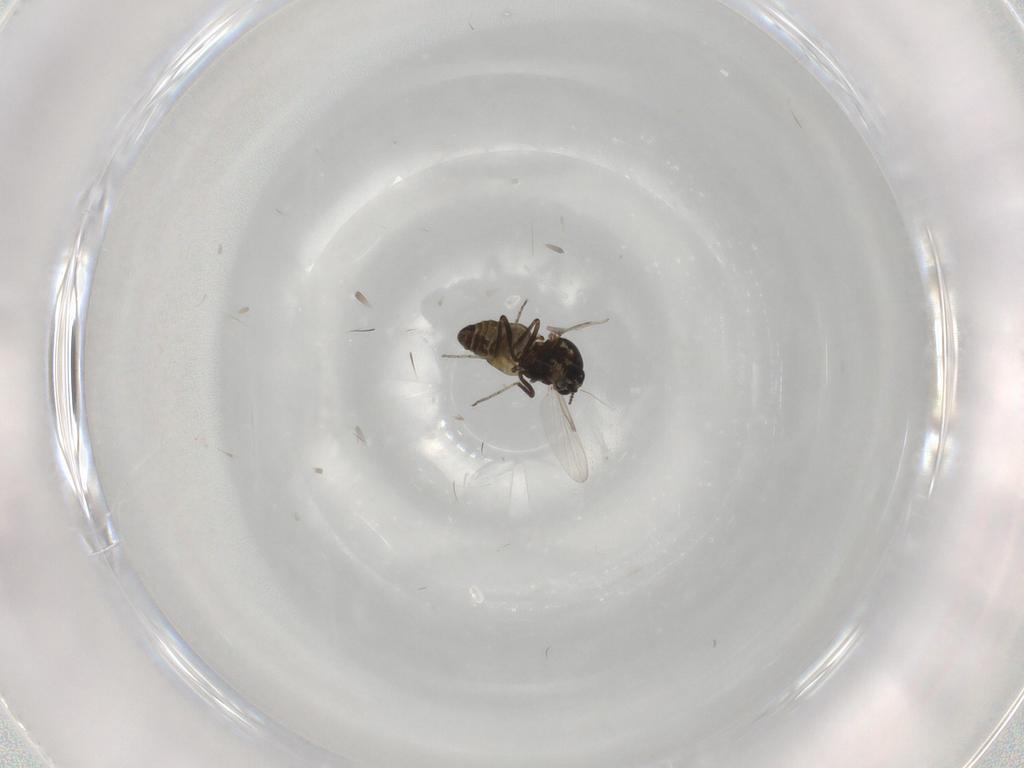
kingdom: Animalia
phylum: Arthropoda
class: Insecta
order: Diptera
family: Ceratopogonidae
